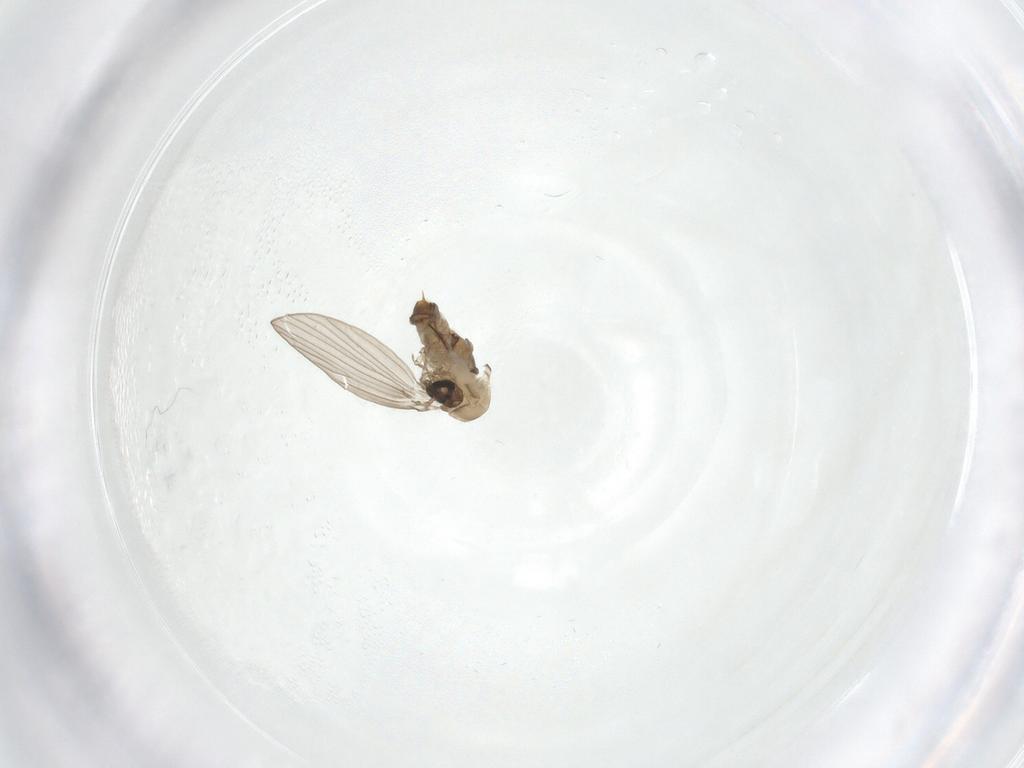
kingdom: Animalia
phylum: Arthropoda
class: Insecta
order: Diptera
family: Psychodidae
